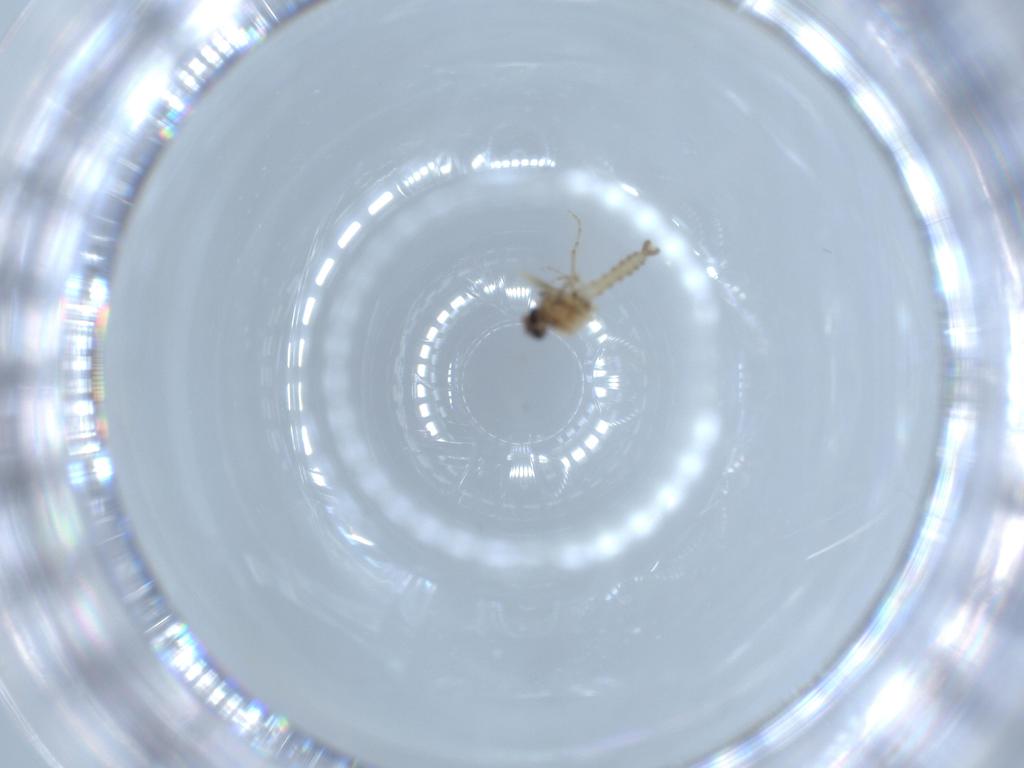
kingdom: Animalia
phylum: Arthropoda
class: Insecta
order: Diptera
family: Ceratopogonidae
